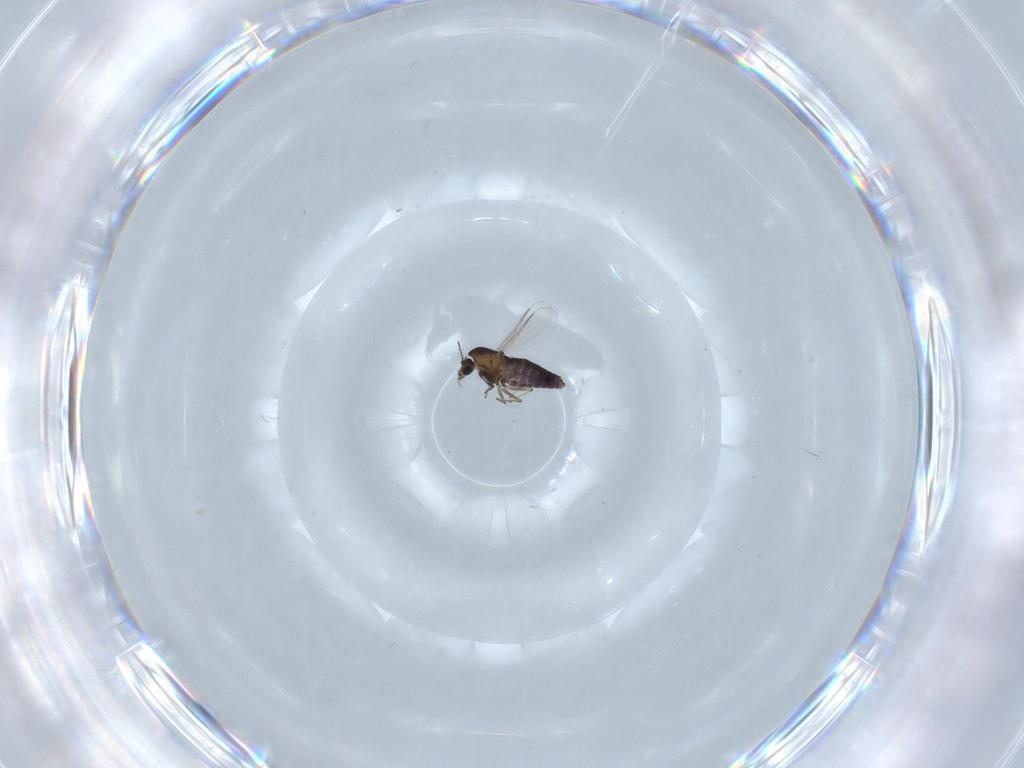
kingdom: Animalia
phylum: Arthropoda
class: Insecta
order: Diptera
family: Chironomidae
